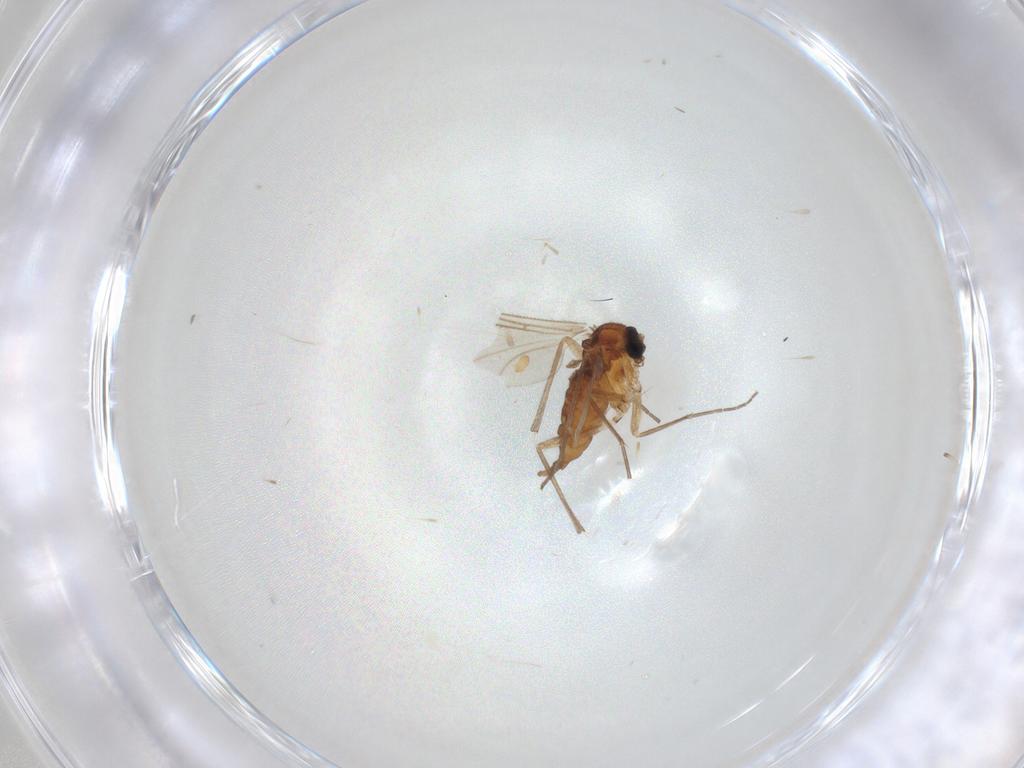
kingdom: Animalia
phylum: Arthropoda
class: Insecta
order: Diptera
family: Sciaridae
